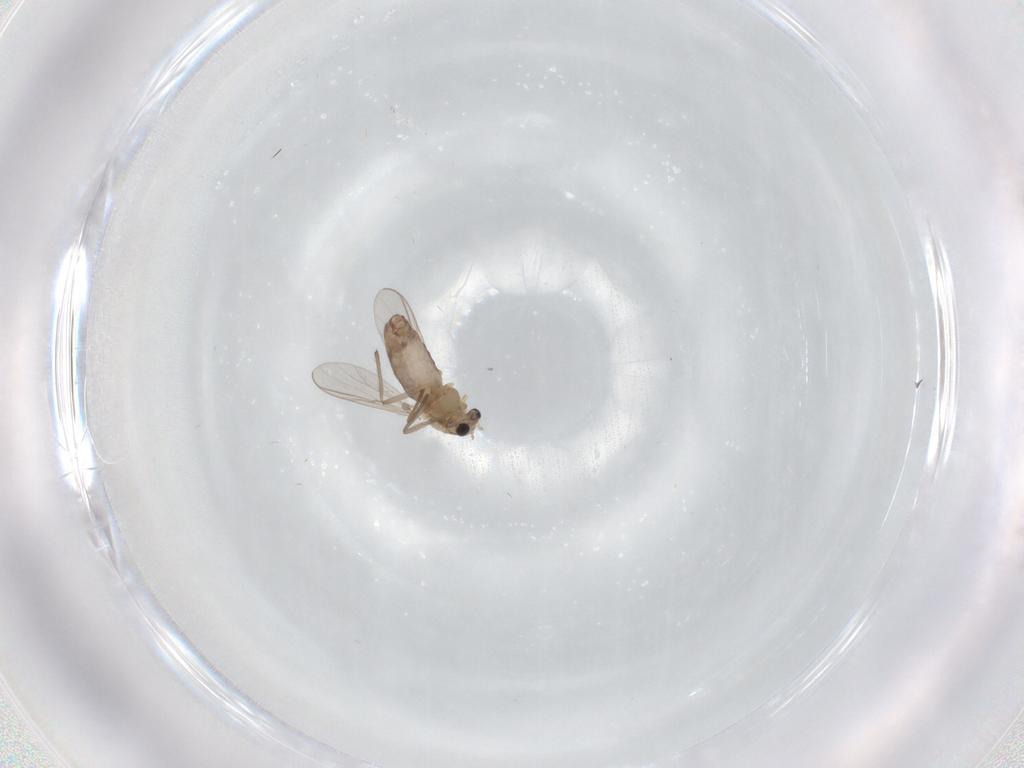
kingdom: Animalia
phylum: Arthropoda
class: Insecta
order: Diptera
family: Chironomidae
